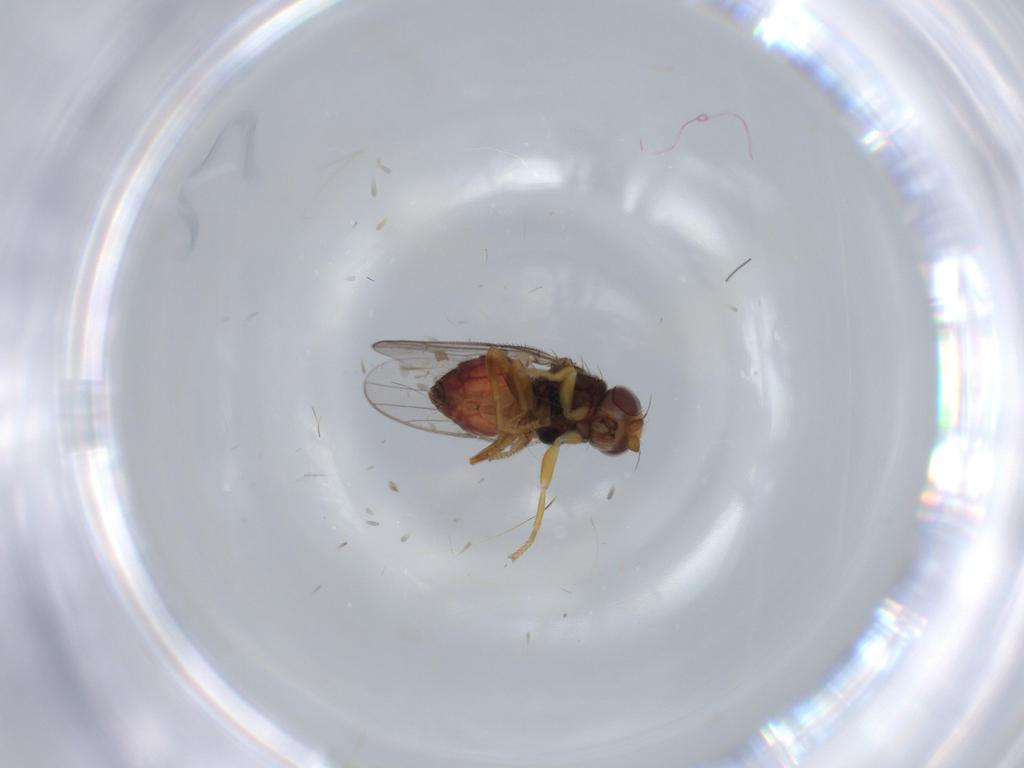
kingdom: Animalia
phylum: Arthropoda
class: Insecta
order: Diptera
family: Chloropidae
